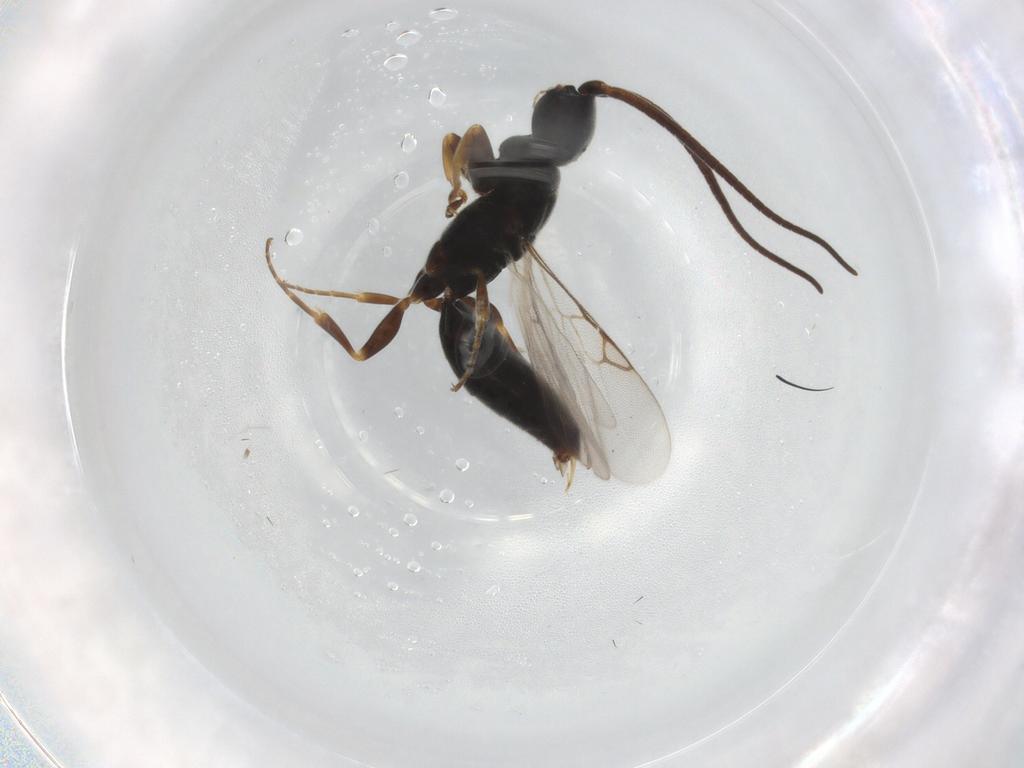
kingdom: Animalia
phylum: Arthropoda
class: Insecta
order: Hymenoptera
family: Sclerogibbidae
